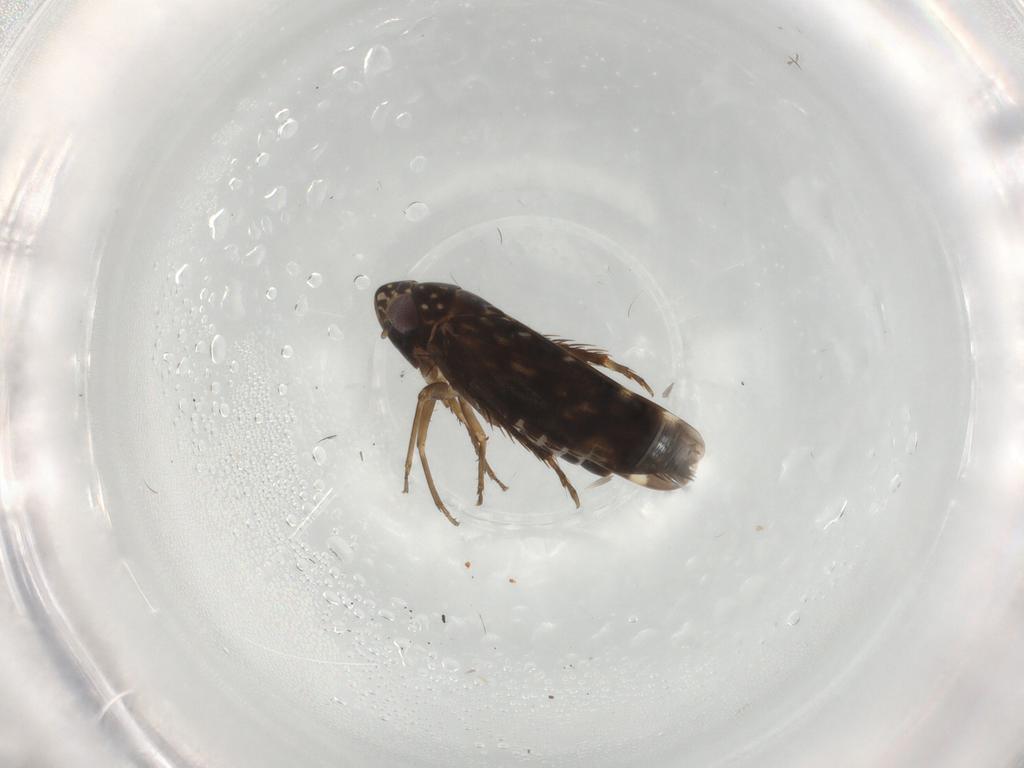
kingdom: Animalia
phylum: Arthropoda
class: Insecta
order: Hemiptera
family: Cicadellidae
